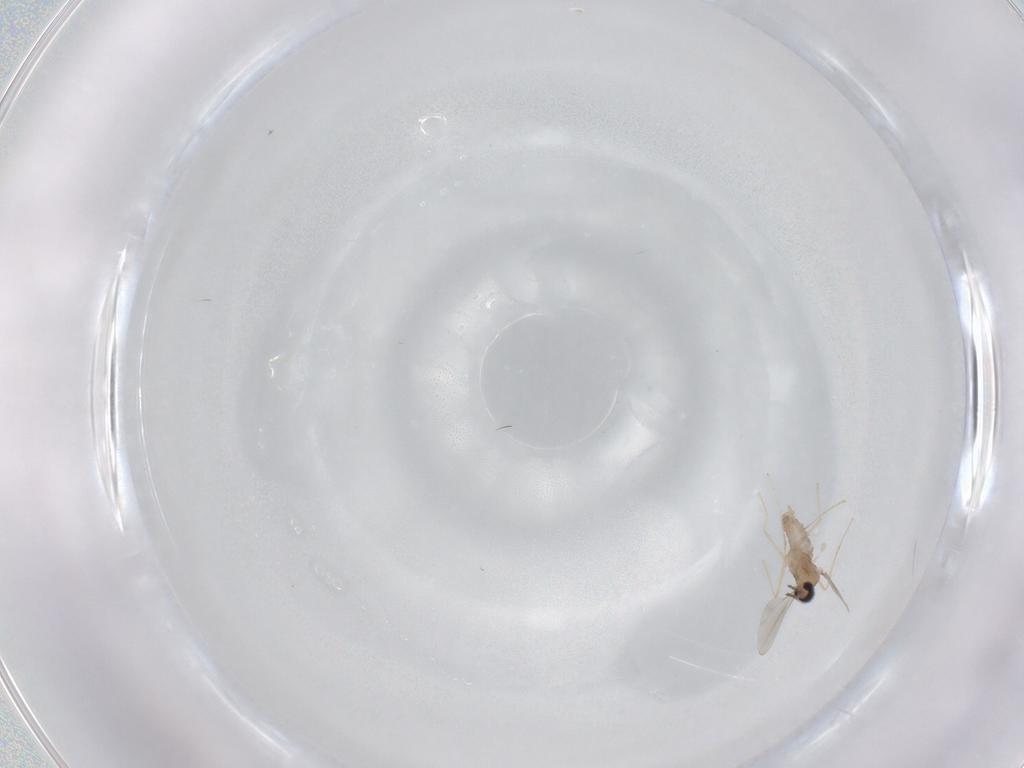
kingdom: Animalia
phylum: Arthropoda
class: Insecta
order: Diptera
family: Cecidomyiidae
